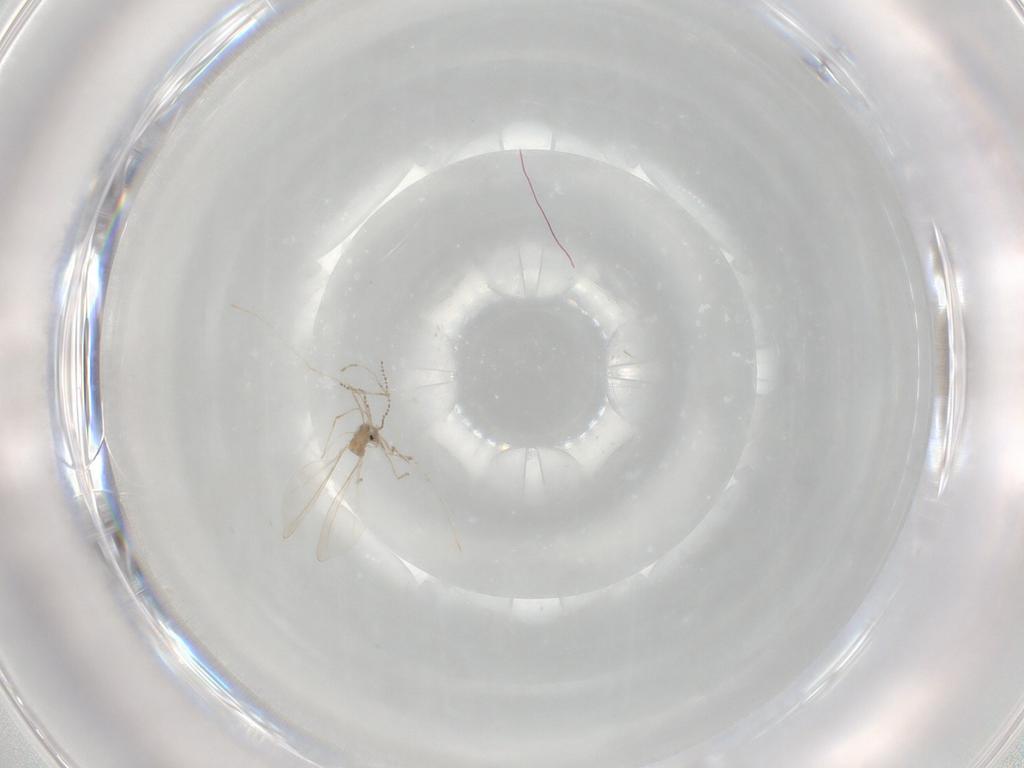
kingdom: Animalia
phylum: Arthropoda
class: Insecta
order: Diptera
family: Cecidomyiidae
